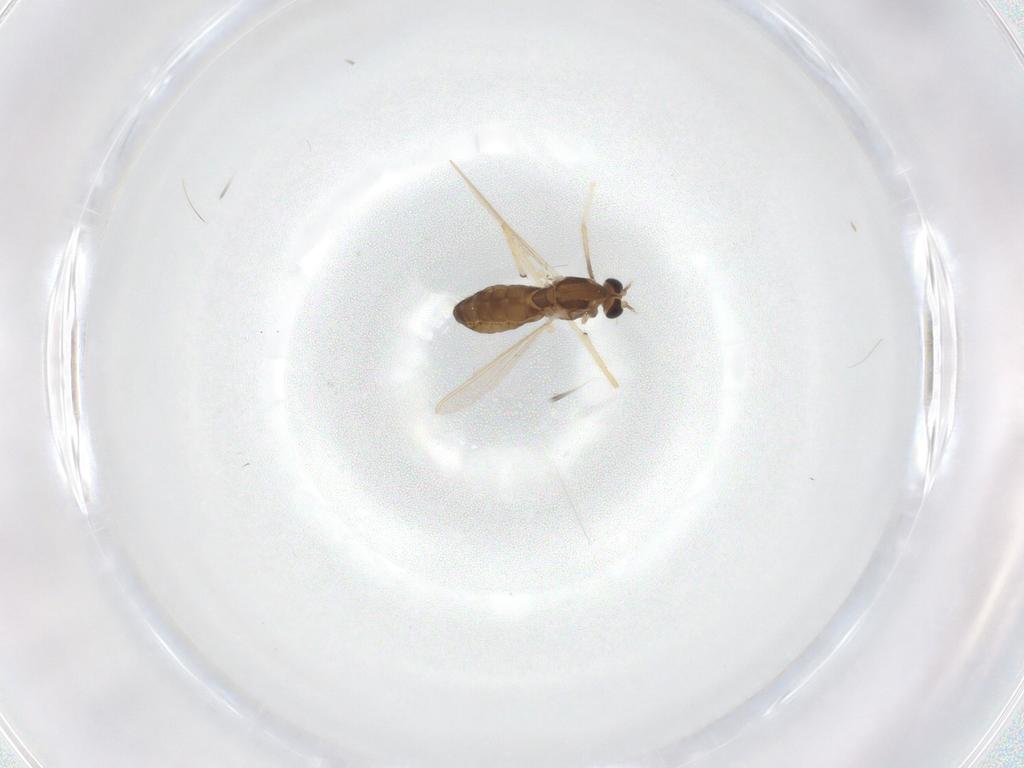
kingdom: Animalia
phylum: Arthropoda
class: Insecta
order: Diptera
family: Chironomidae
